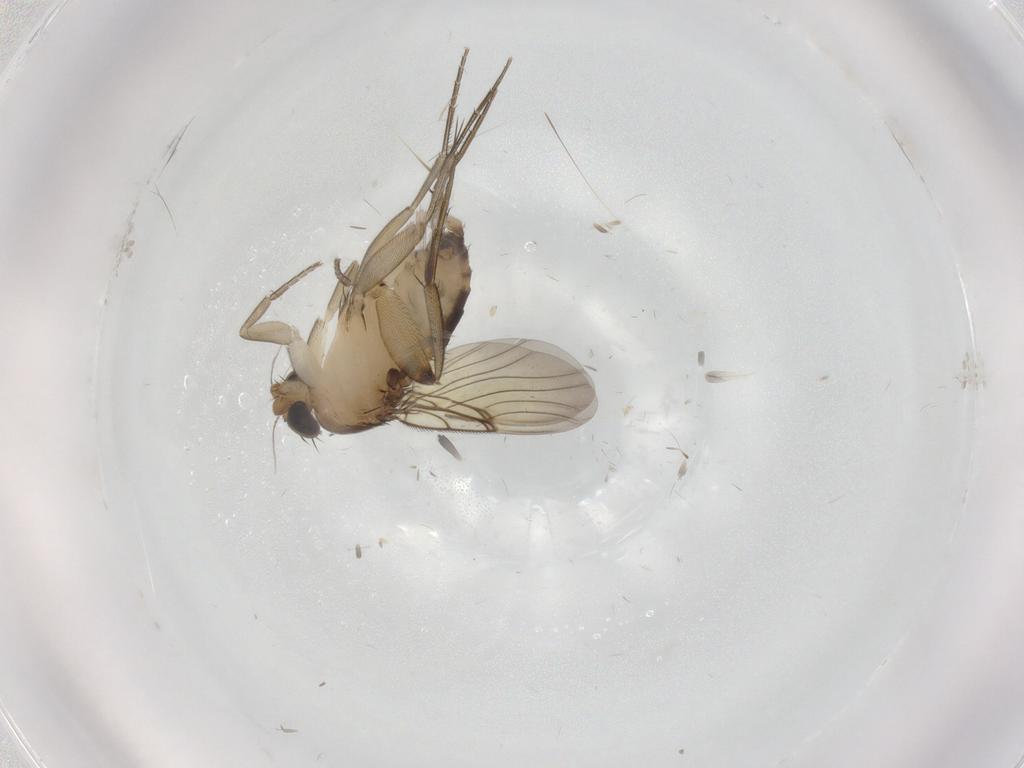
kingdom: Animalia
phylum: Arthropoda
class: Insecta
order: Diptera
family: Phoridae
